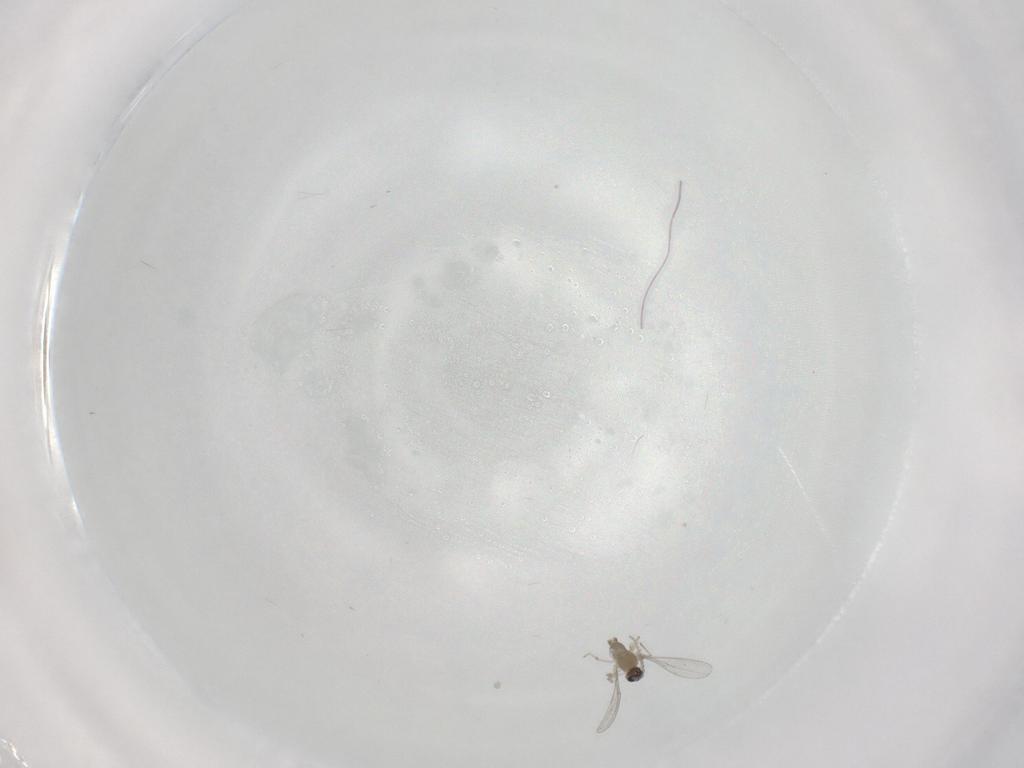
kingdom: Animalia
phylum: Arthropoda
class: Insecta
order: Diptera
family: Cecidomyiidae
